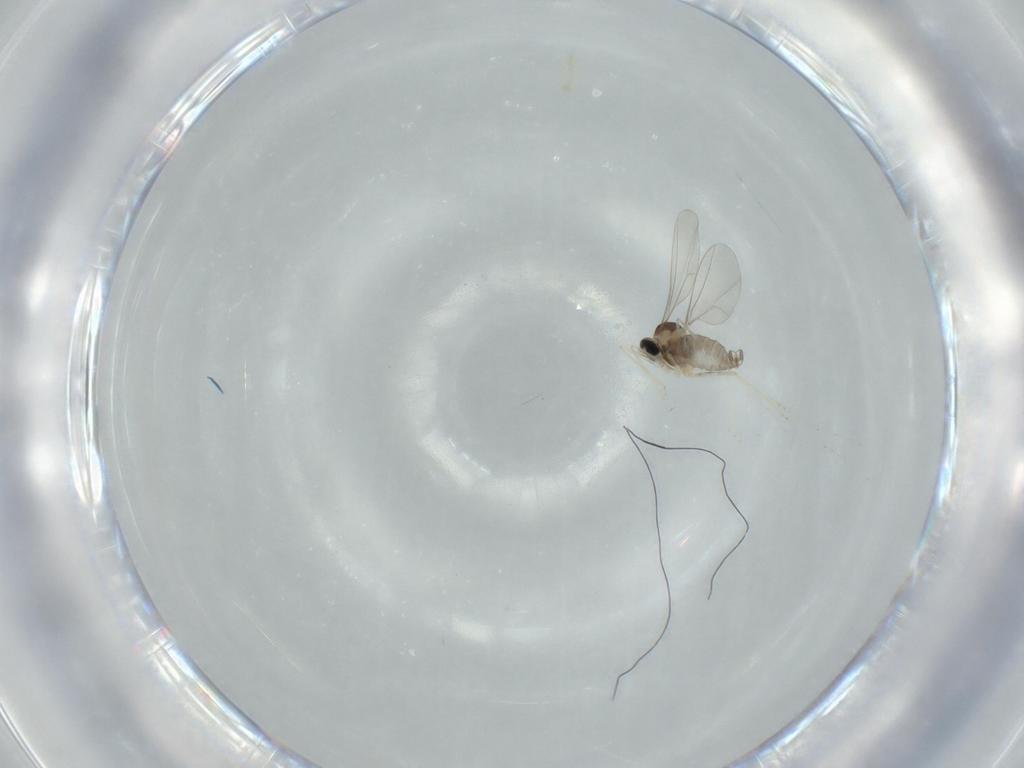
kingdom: Animalia
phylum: Arthropoda
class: Insecta
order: Diptera
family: Cecidomyiidae
